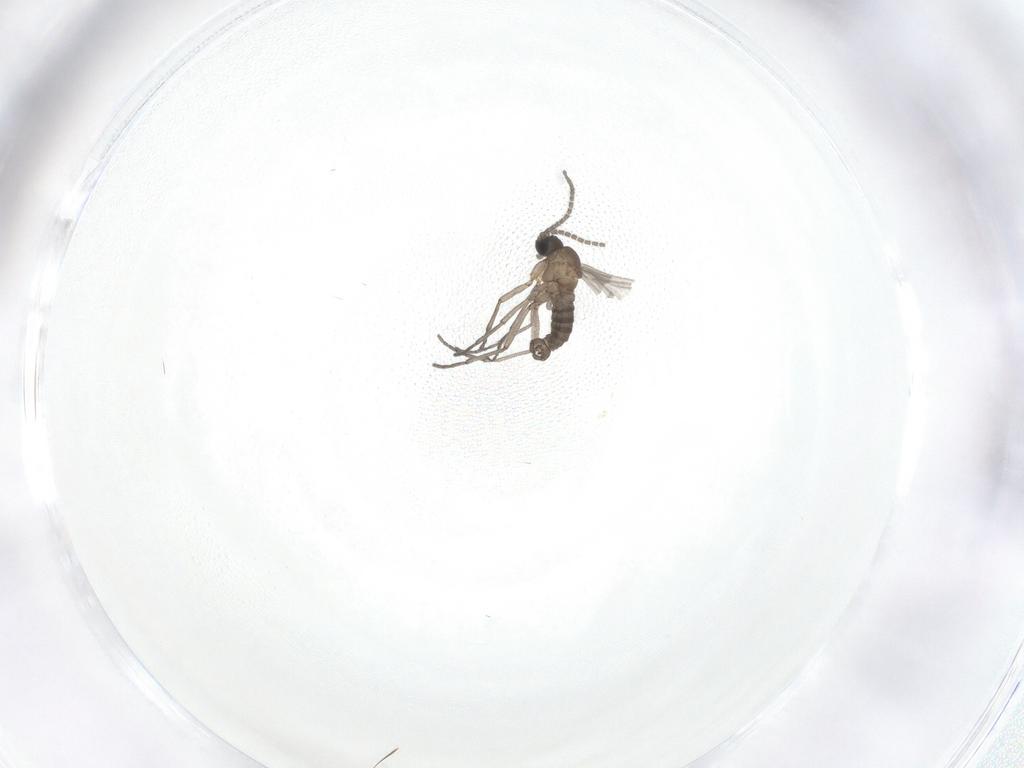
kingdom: Animalia
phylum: Arthropoda
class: Insecta
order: Diptera
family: Sciaridae
